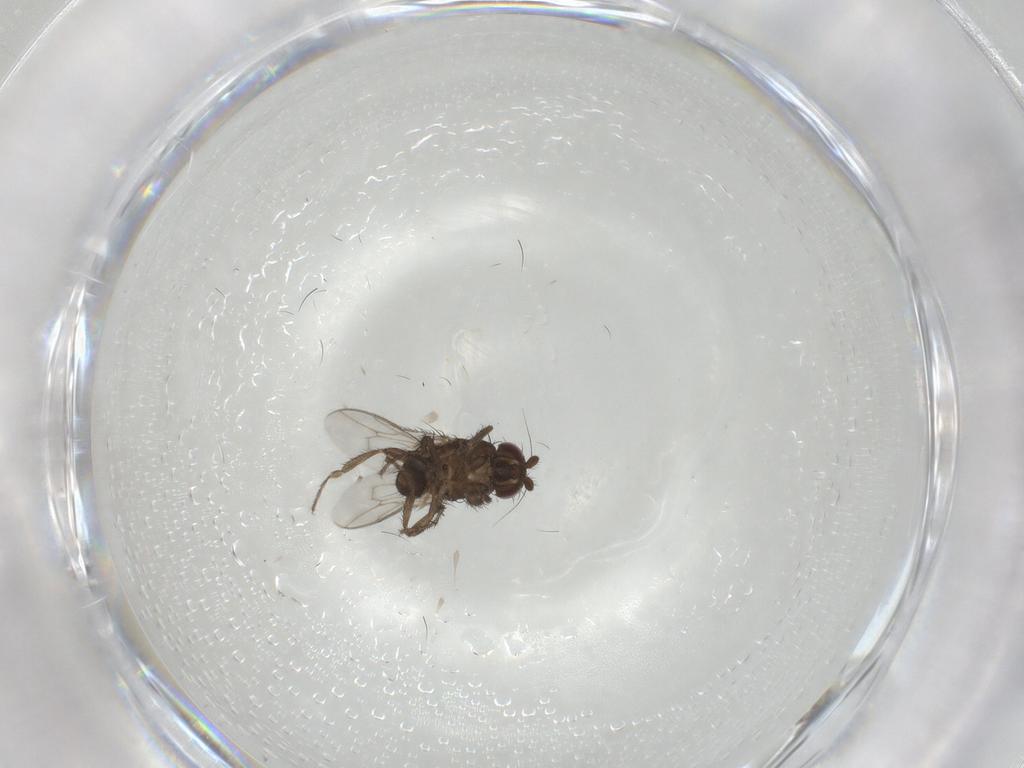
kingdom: Animalia
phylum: Arthropoda
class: Insecta
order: Diptera
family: Sphaeroceridae
